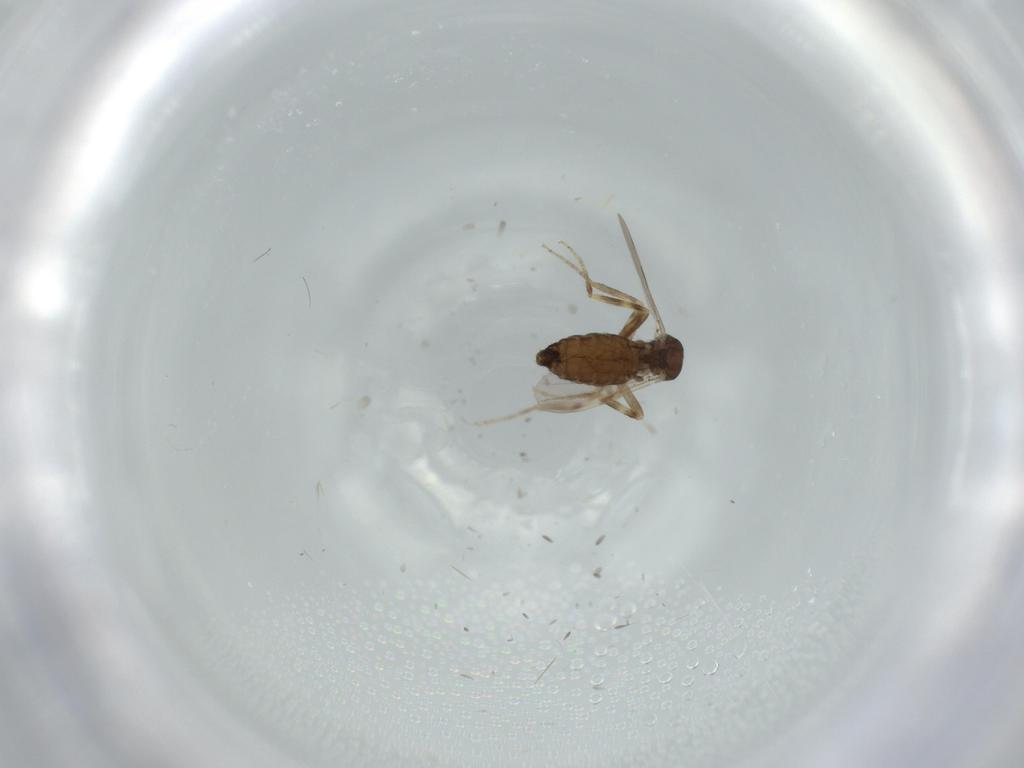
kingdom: Animalia
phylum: Arthropoda
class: Insecta
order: Diptera
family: Ceratopogonidae
